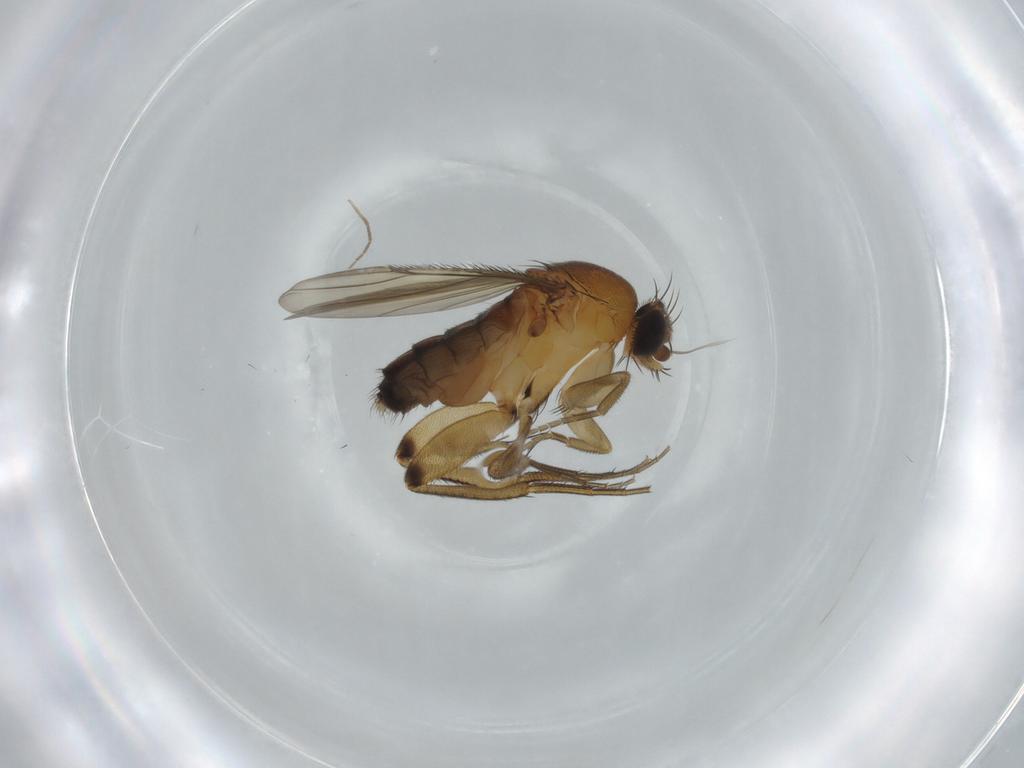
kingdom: Animalia
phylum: Arthropoda
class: Insecta
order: Diptera
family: Phoridae
